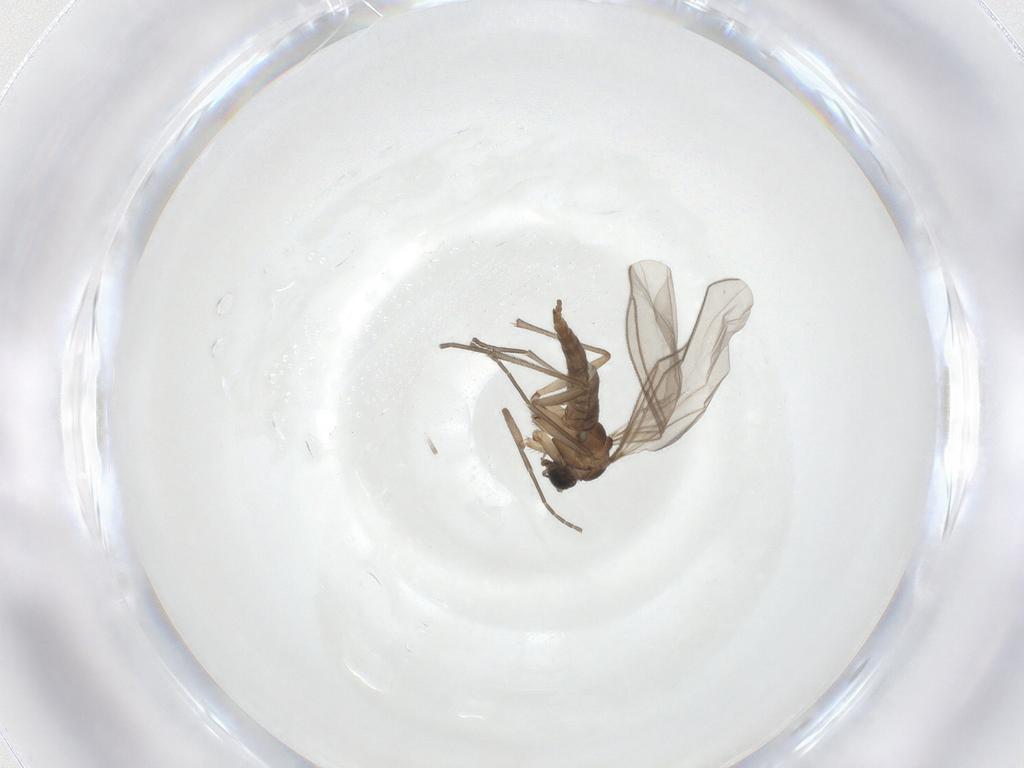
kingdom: Animalia
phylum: Arthropoda
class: Insecta
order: Diptera
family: Sciaridae
